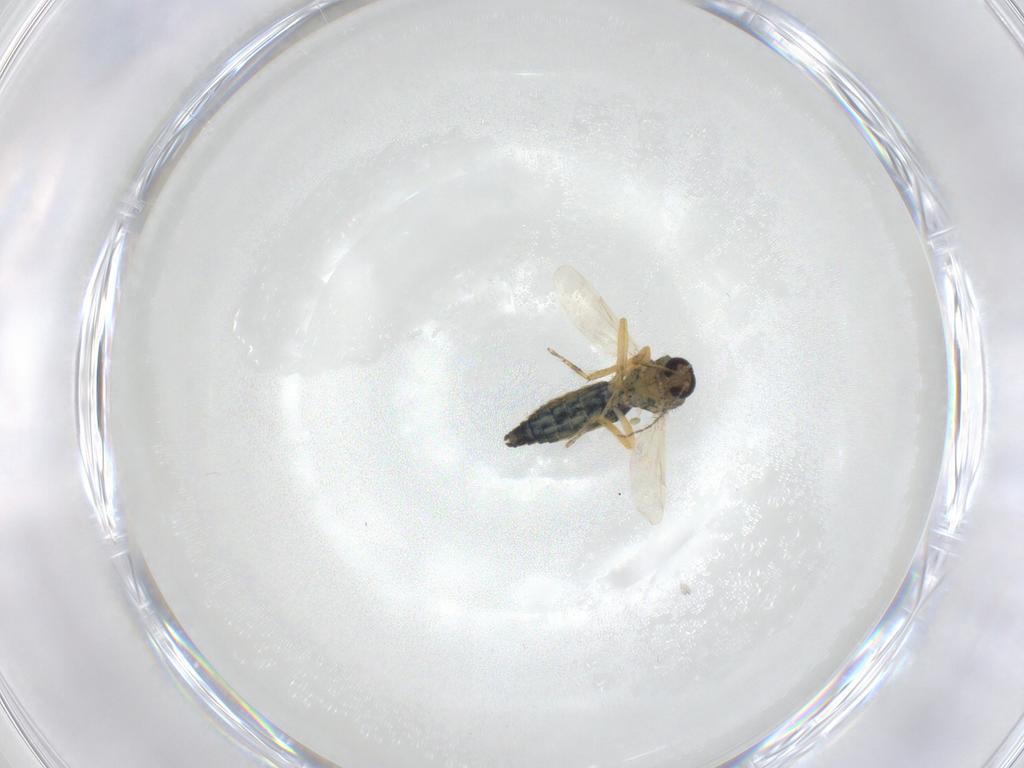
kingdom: Animalia
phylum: Arthropoda
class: Insecta
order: Diptera
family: Ceratopogonidae
